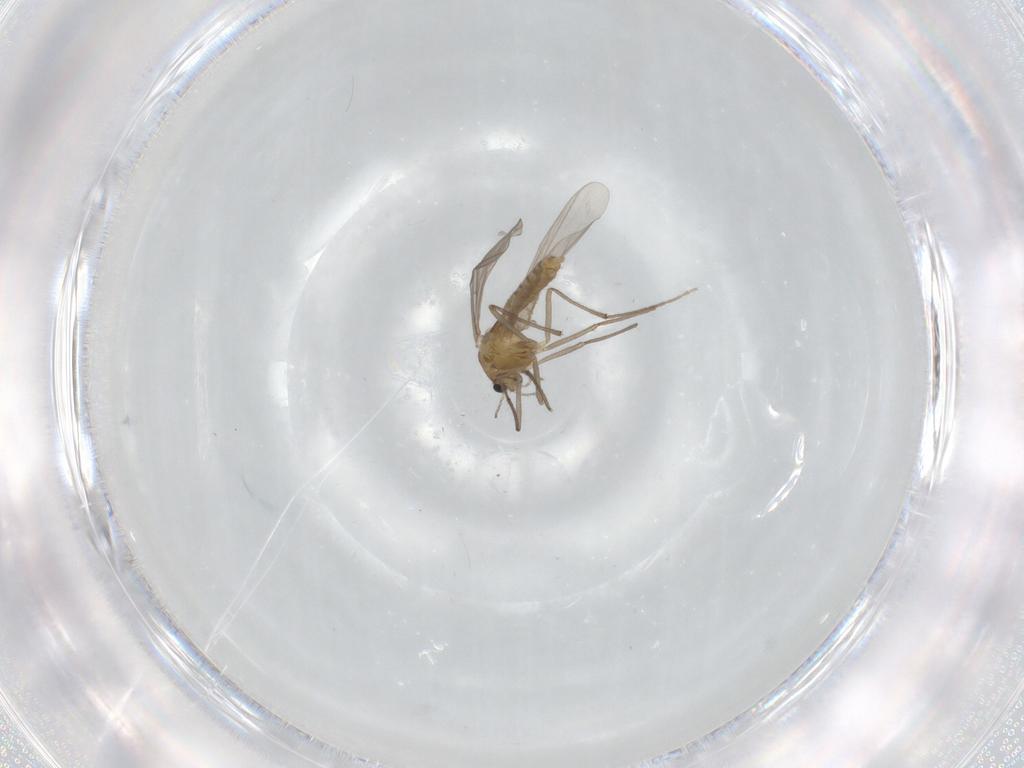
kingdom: Animalia
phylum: Arthropoda
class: Insecta
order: Diptera
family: Chironomidae
